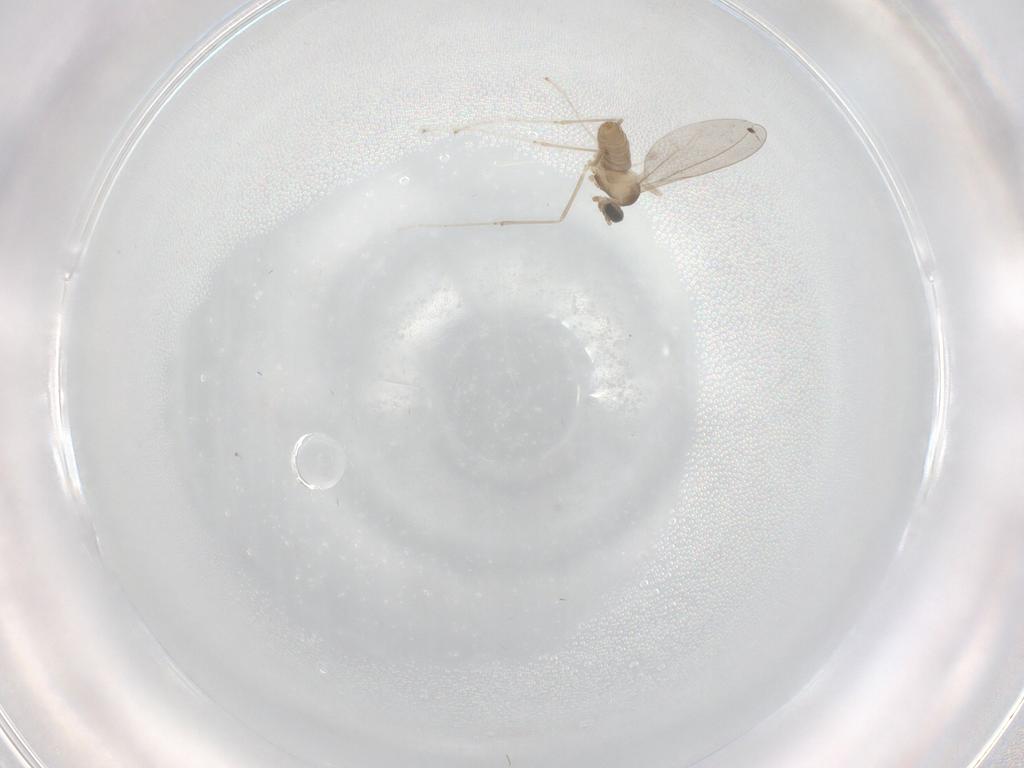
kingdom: Animalia
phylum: Arthropoda
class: Insecta
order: Diptera
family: Cecidomyiidae
